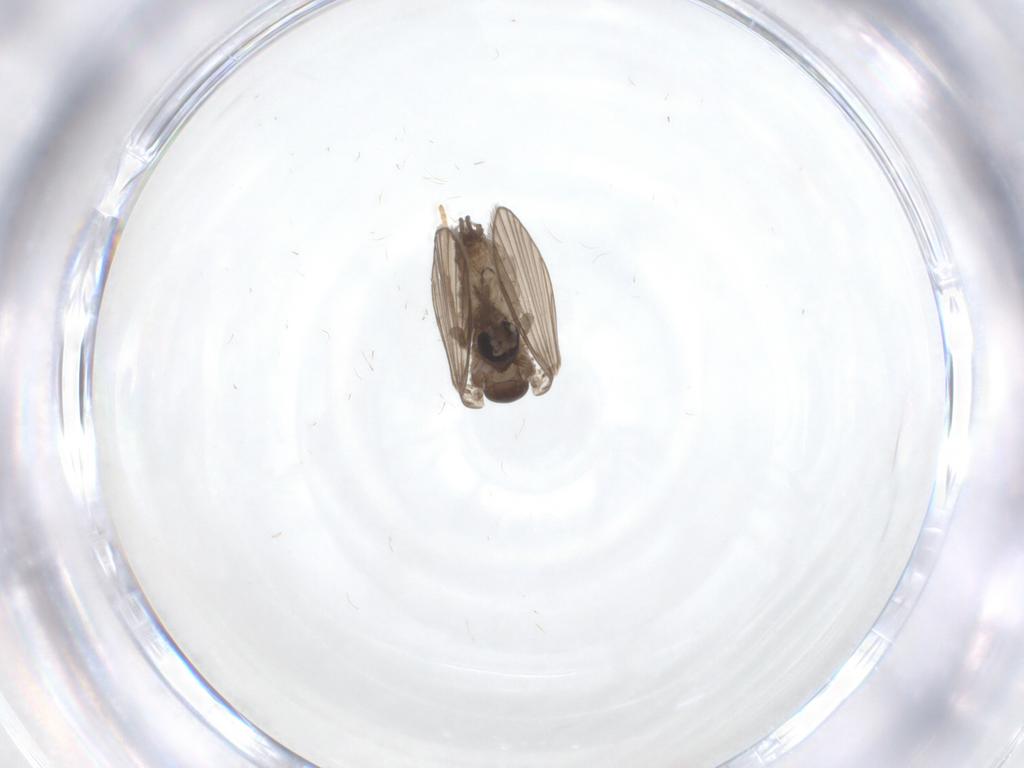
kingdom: Animalia
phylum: Arthropoda
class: Insecta
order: Diptera
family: Psychodidae
